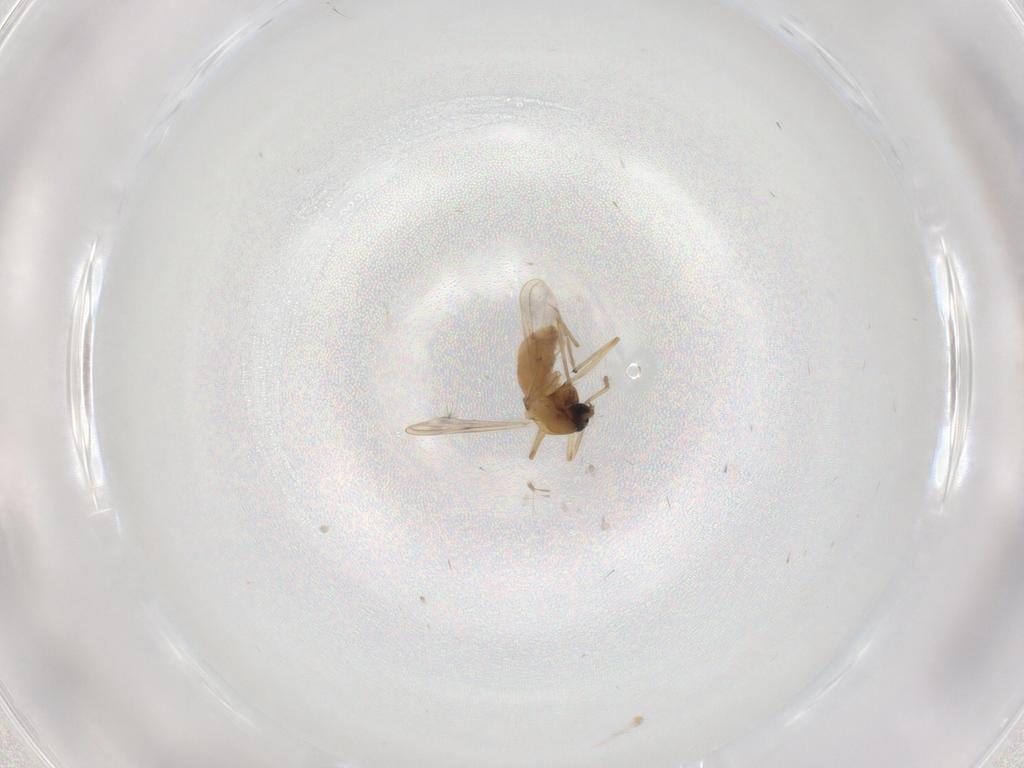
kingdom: Animalia
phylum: Arthropoda
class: Insecta
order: Diptera
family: Chironomidae
